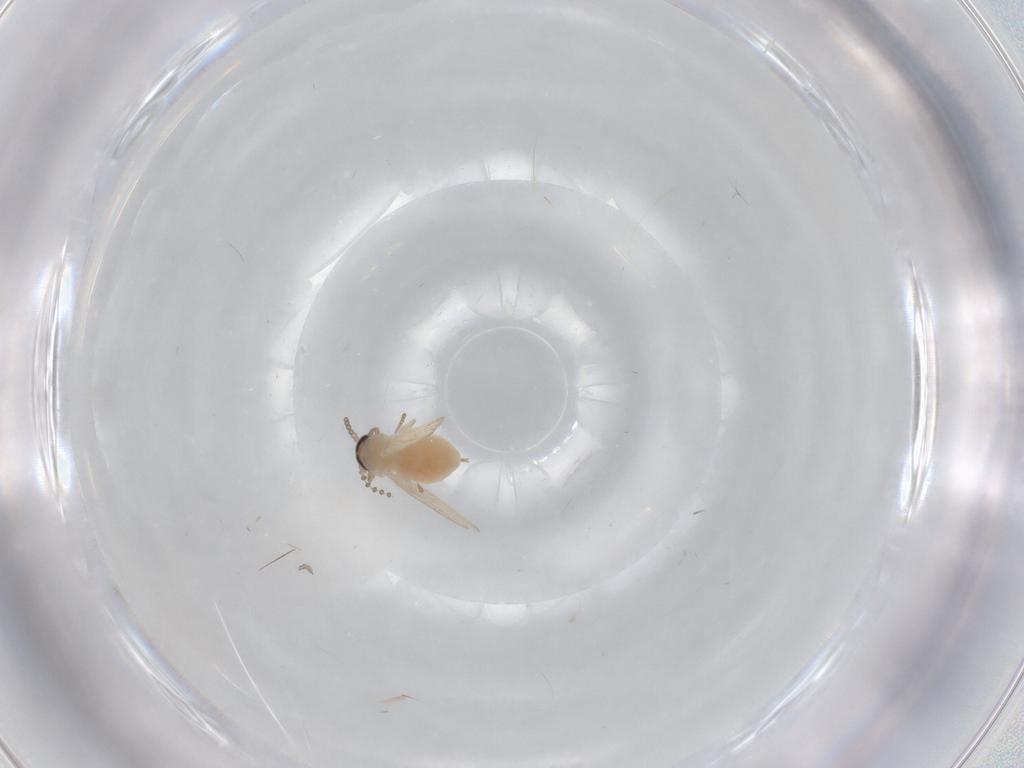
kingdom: Animalia
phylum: Arthropoda
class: Insecta
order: Diptera
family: Psychodidae
